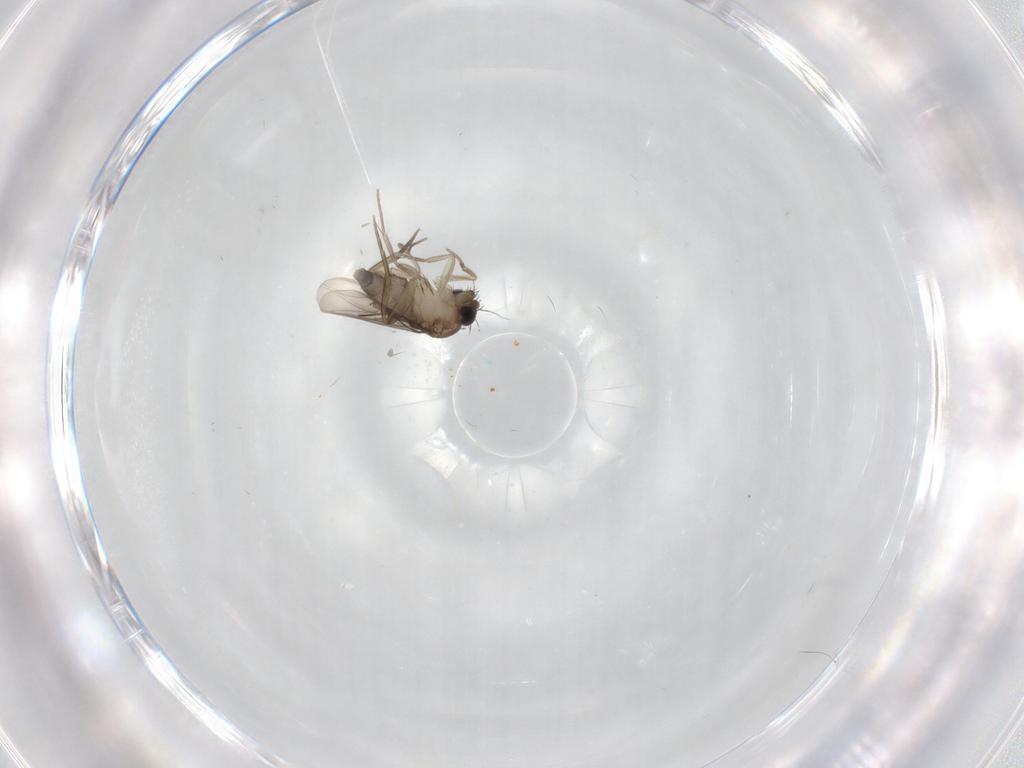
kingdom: Animalia
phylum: Arthropoda
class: Insecta
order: Diptera
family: Phoridae
